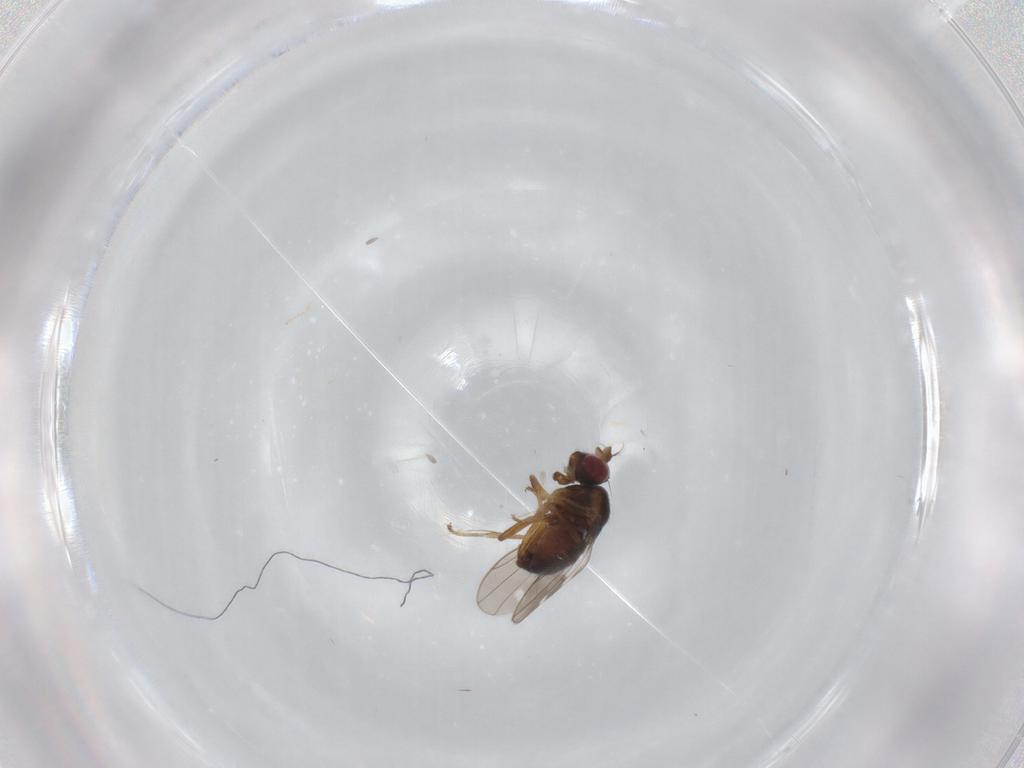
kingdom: Animalia
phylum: Arthropoda
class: Insecta
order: Diptera
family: Ephydridae
